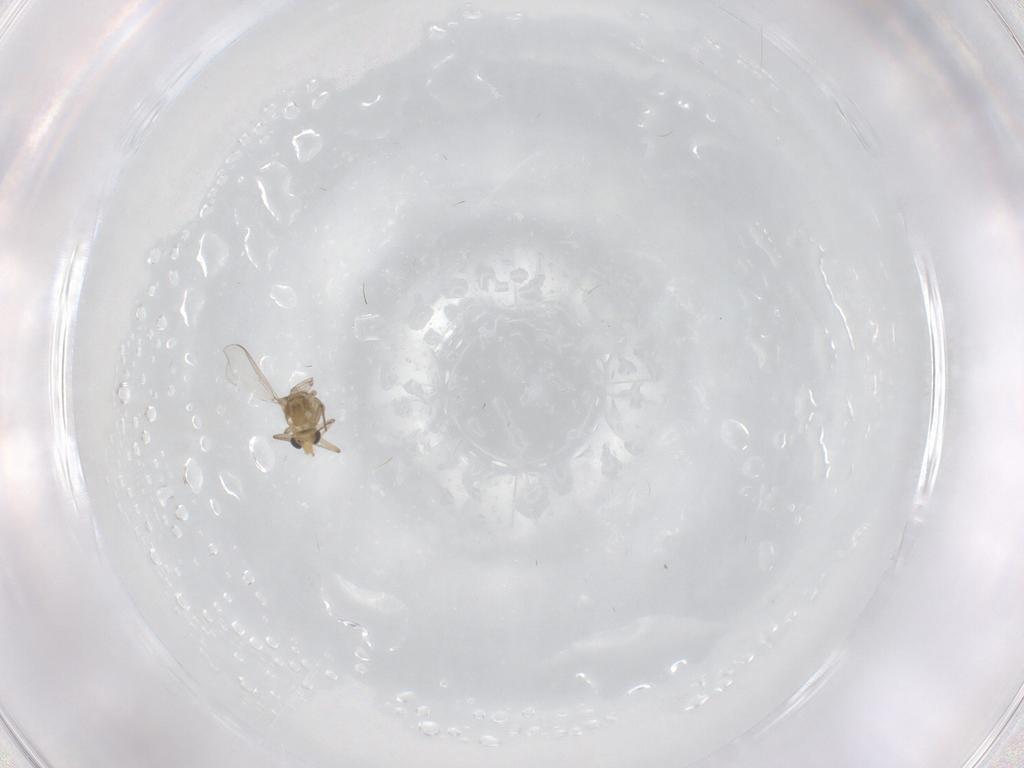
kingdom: Animalia
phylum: Arthropoda
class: Insecta
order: Diptera
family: Chironomidae
